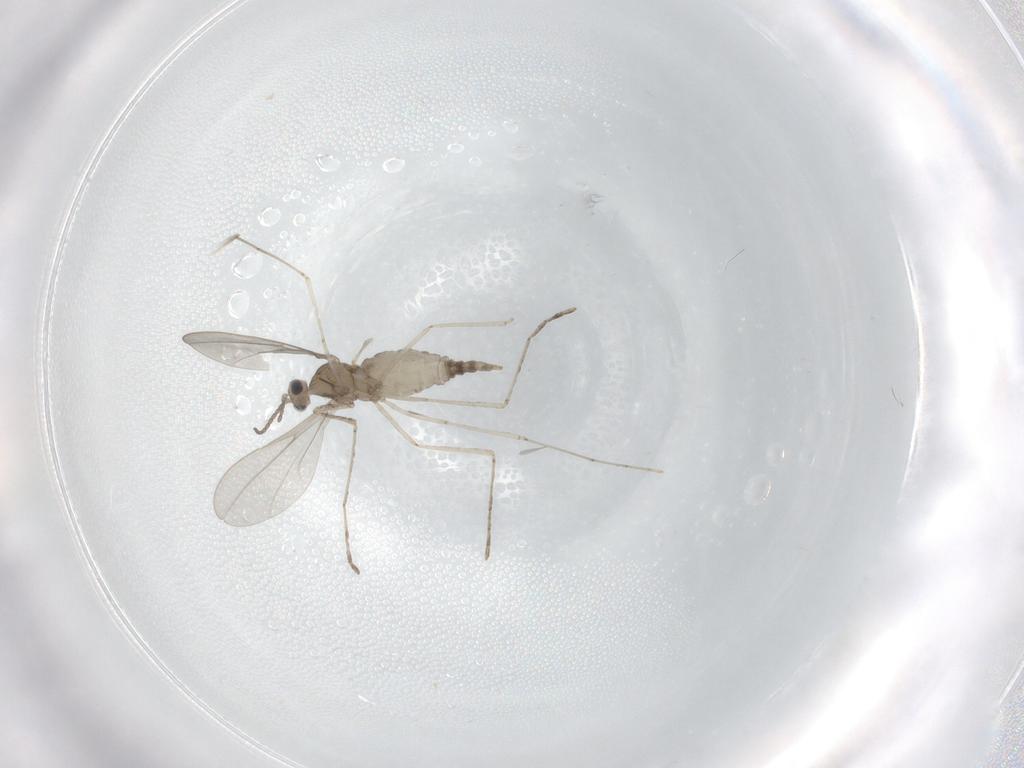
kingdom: Animalia
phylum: Arthropoda
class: Insecta
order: Diptera
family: Cecidomyiidae
